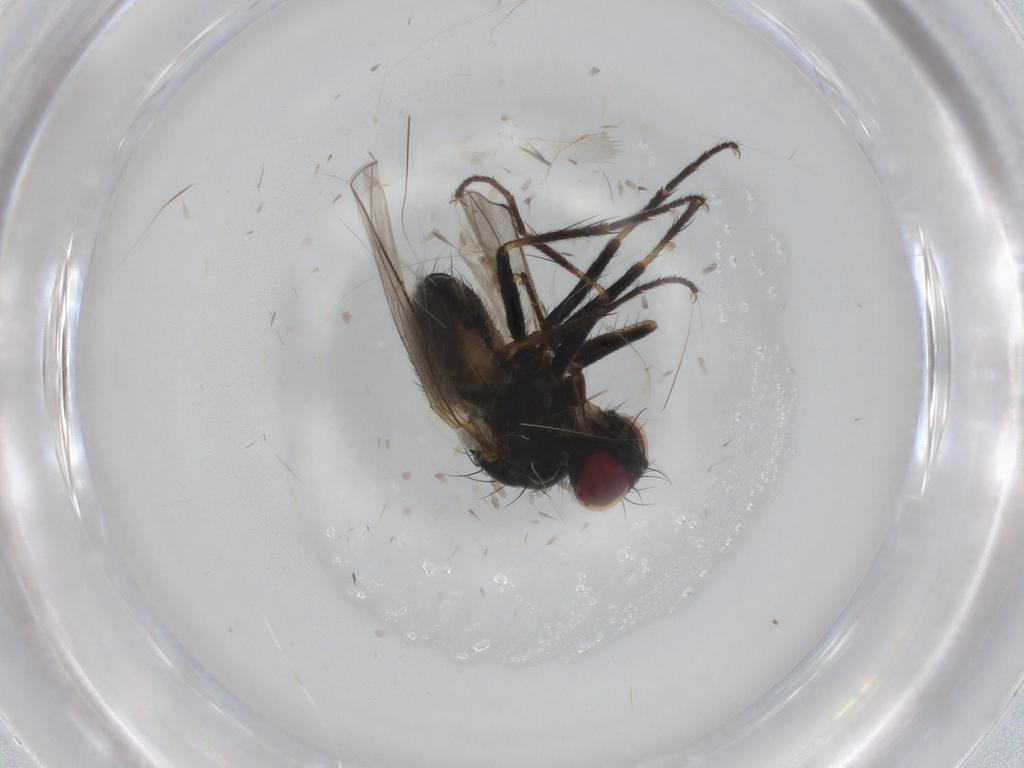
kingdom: Animalia
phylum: Arthropoda
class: Insecta
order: Diptera
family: Muscidae
